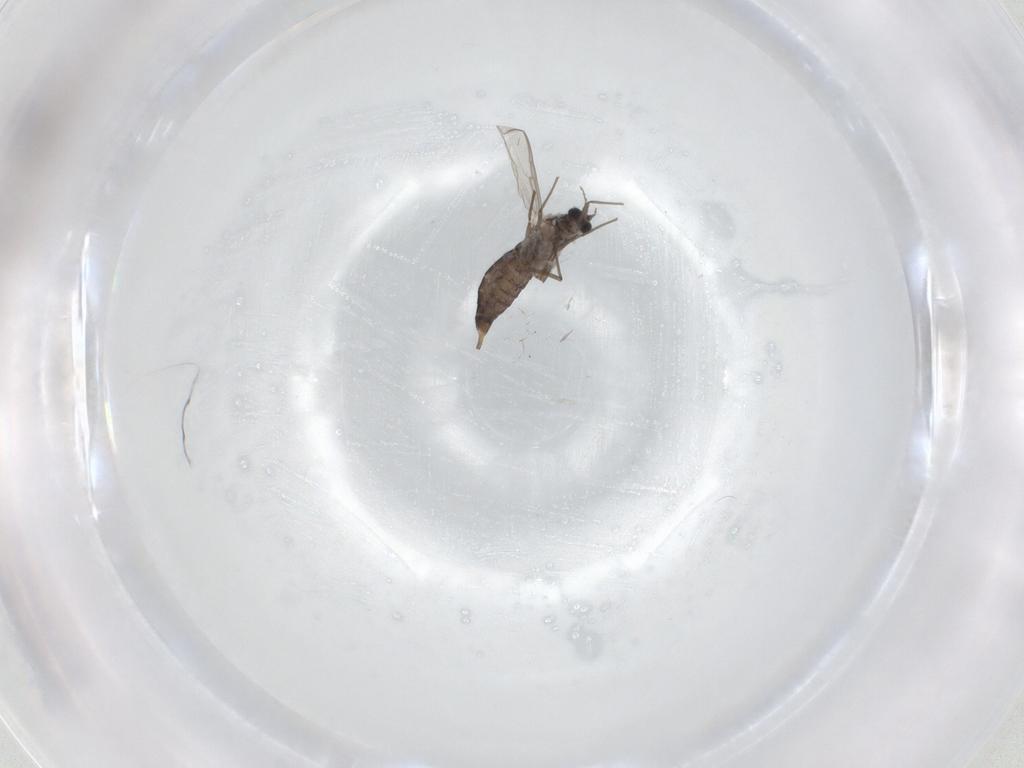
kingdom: Animalia
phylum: Arthropoda
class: Insecta
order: Diptera
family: Chironomidae
